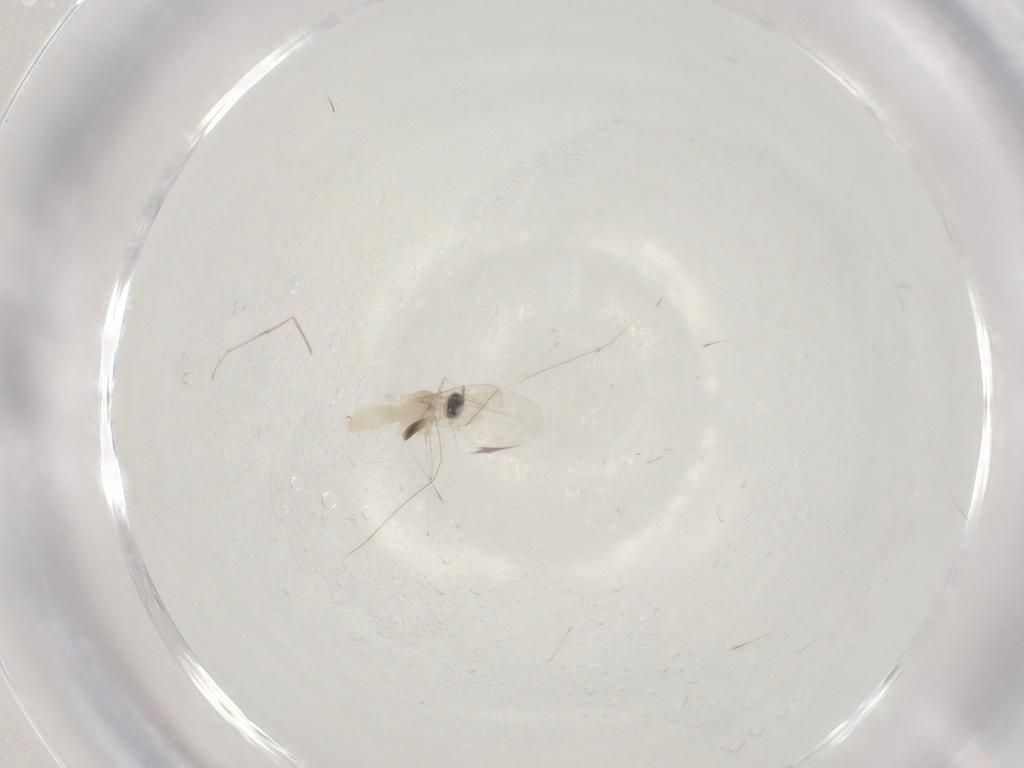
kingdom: Animalia
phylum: Arthropoda
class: Insecta
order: Diptera
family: Cecidomyiidae
